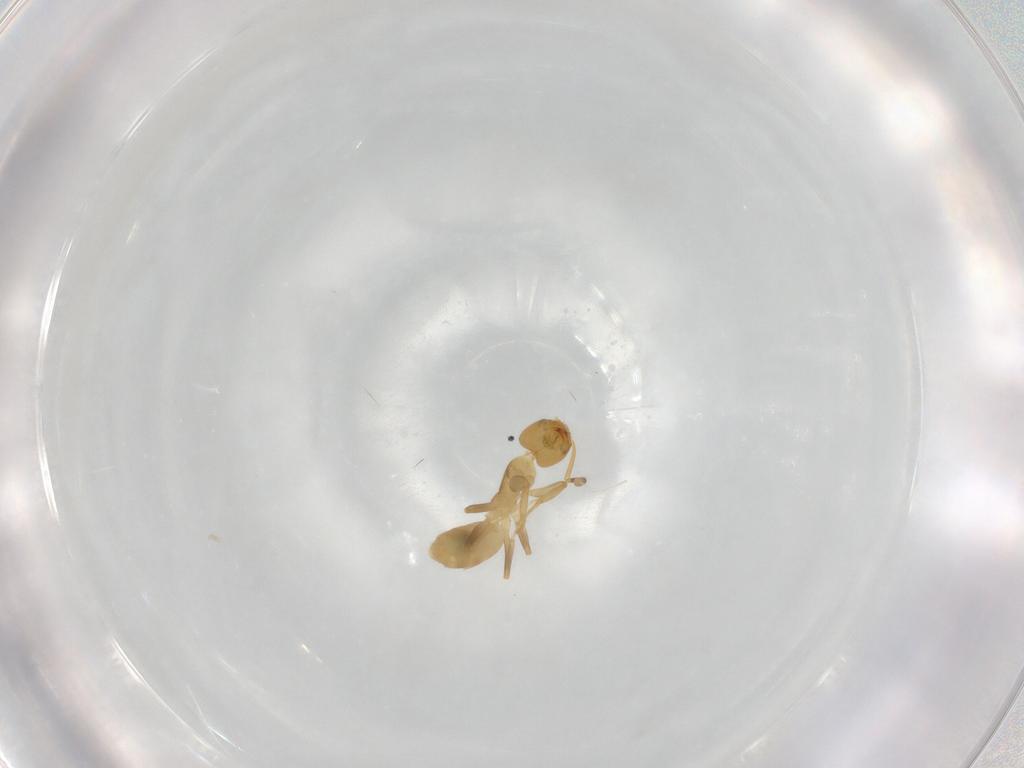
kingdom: Animalia
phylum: Arthropoda
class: Insecta
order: Hymenoptera
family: Formicidae
